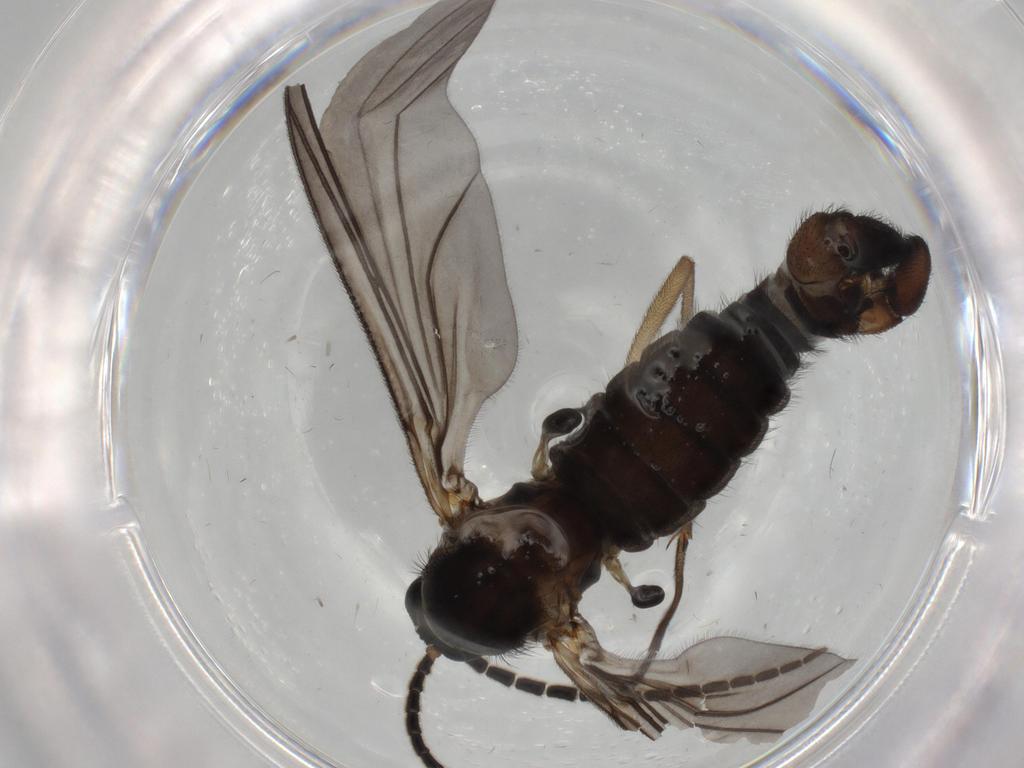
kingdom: Animalia
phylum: Arthropoda
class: Insecta
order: Diptera
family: Sciaridae
